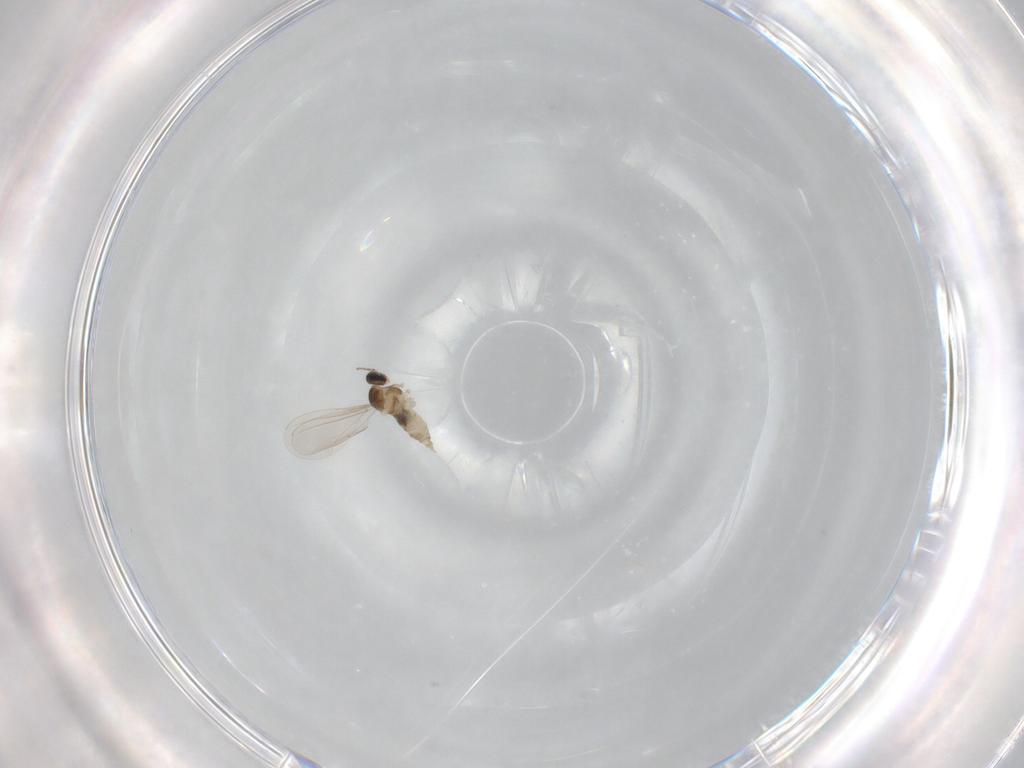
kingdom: Animalia
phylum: Arthropoda
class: Insecta
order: Diptera
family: Cecidomyiidae
